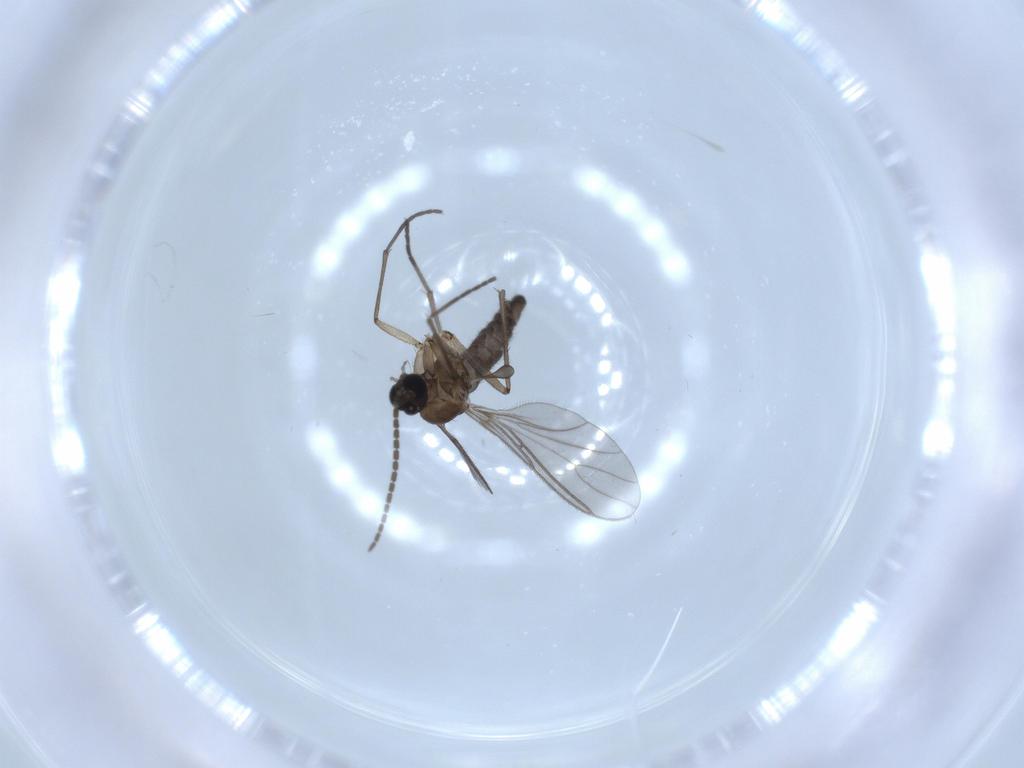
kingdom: Animalia
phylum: Arthropoda
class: Insecta
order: Diptera
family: Sciaridae
